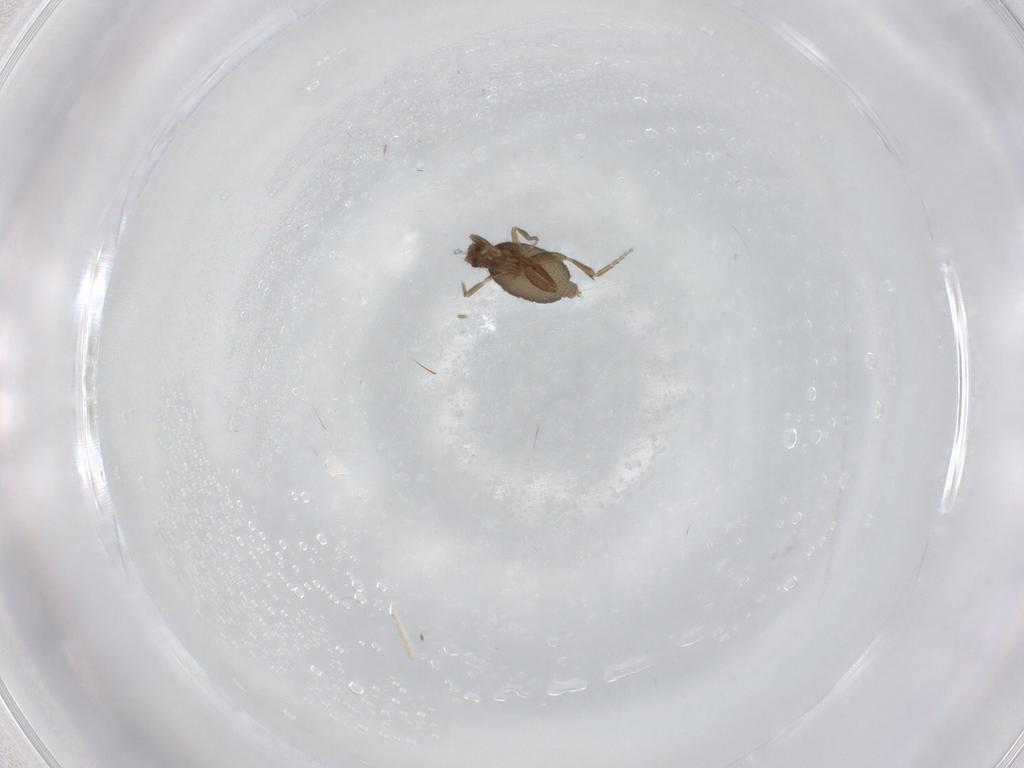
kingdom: Animalia
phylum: Arthropoda
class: Insecta
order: Diptera
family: Phoridae
